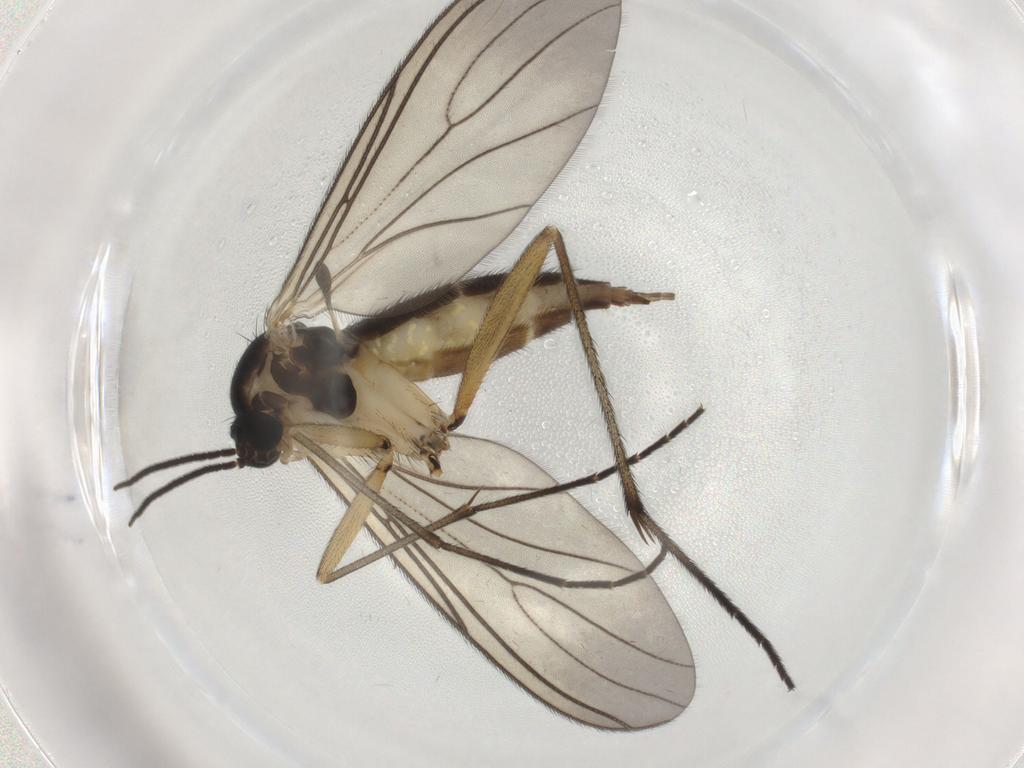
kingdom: Animalia
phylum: Arthropoda
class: Insecta
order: Diptera
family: Sciaridae
